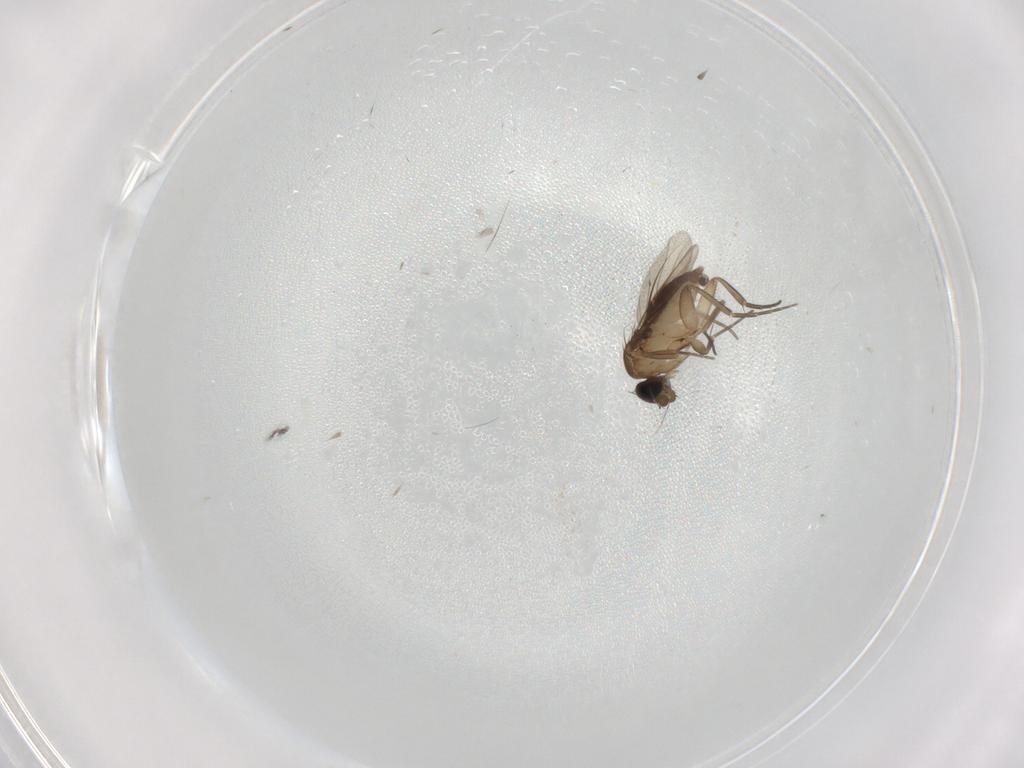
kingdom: Animalia
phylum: Arthropoda
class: Insecta
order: Diptera
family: Phoridae
